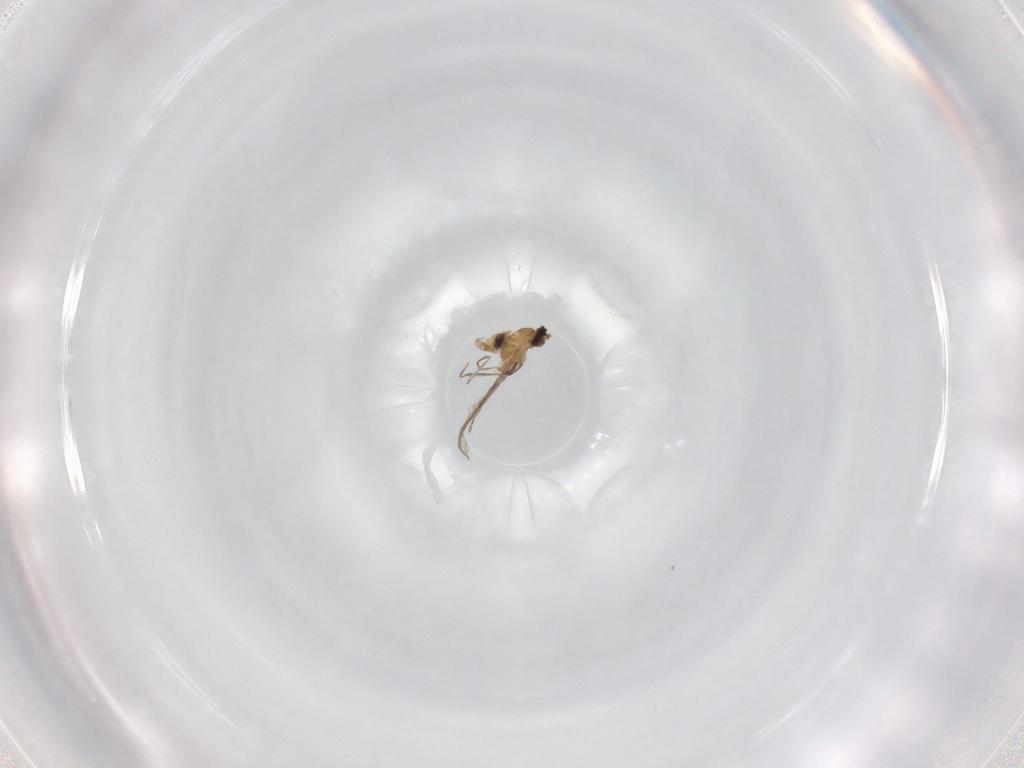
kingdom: Animalia
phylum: Arthropoda
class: Insecta
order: Diptera
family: Cecidomyiidae
